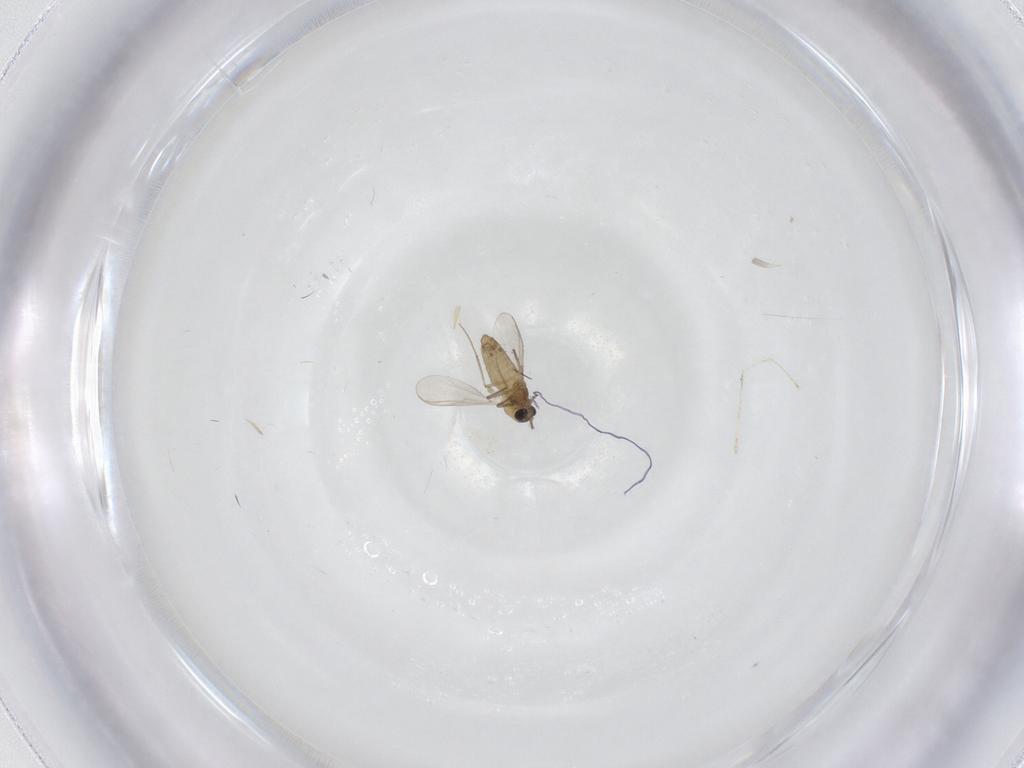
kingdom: Animalia
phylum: Arthropoda
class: Insecta
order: Diptera
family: Chironomidae
